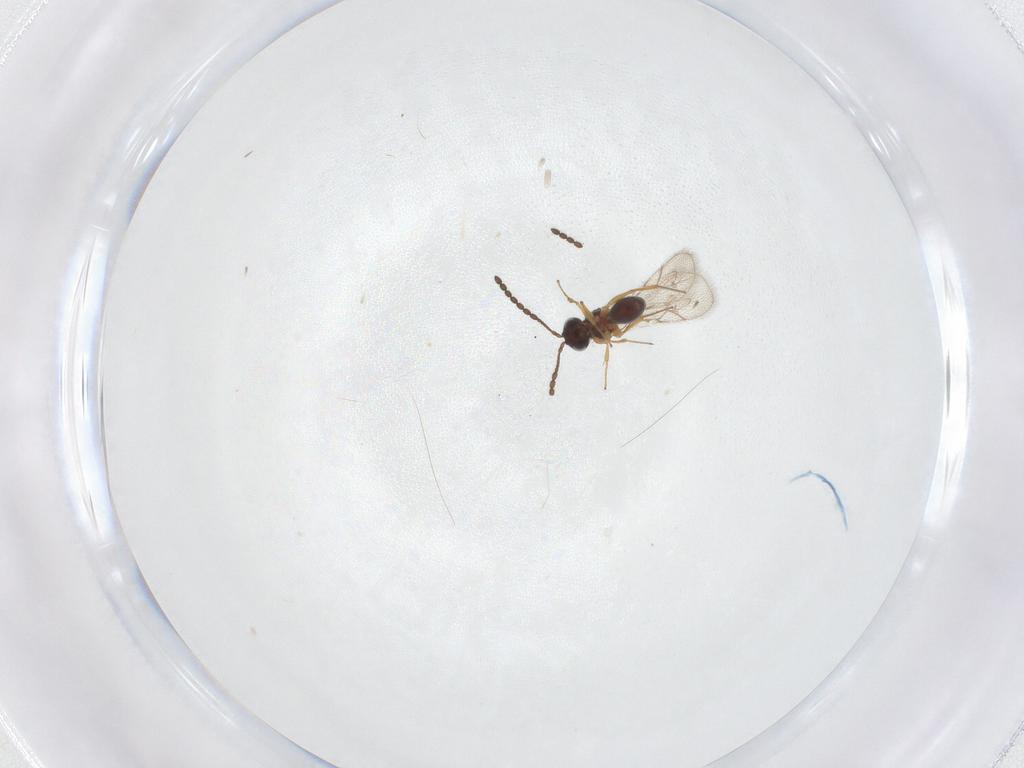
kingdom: Animalia
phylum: Arthropoda
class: Insecta
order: Hymenoptera
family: Figitidae
